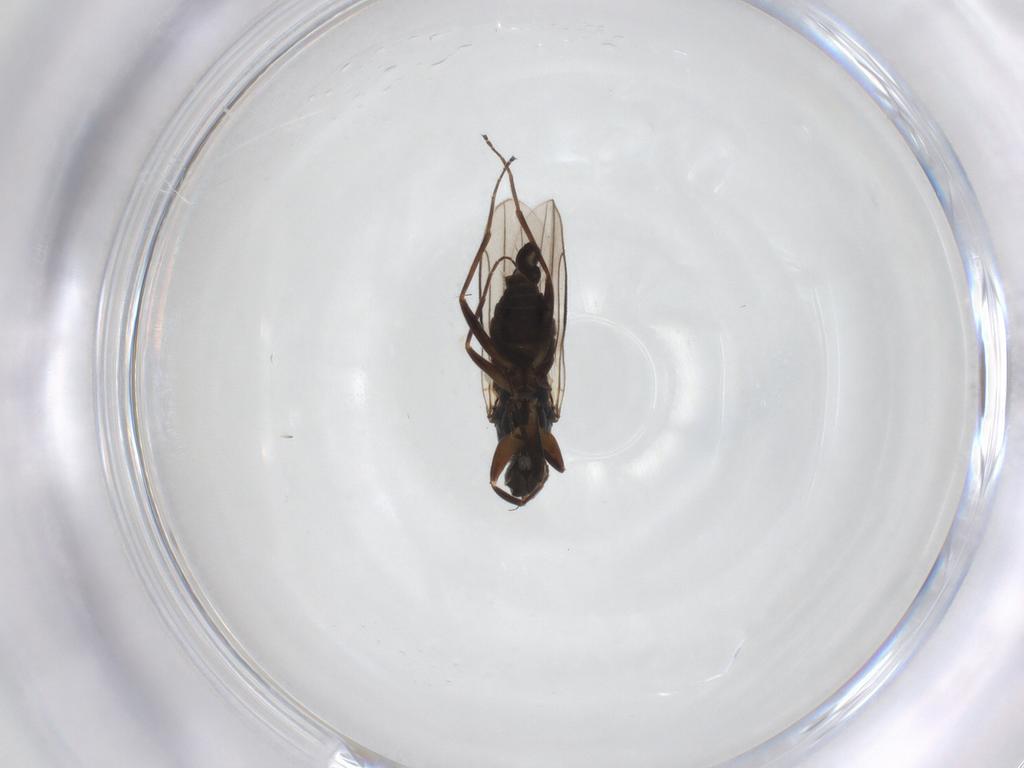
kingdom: Animalia
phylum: Arthropoda
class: Insecta
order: Diptera
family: Hybotidae
